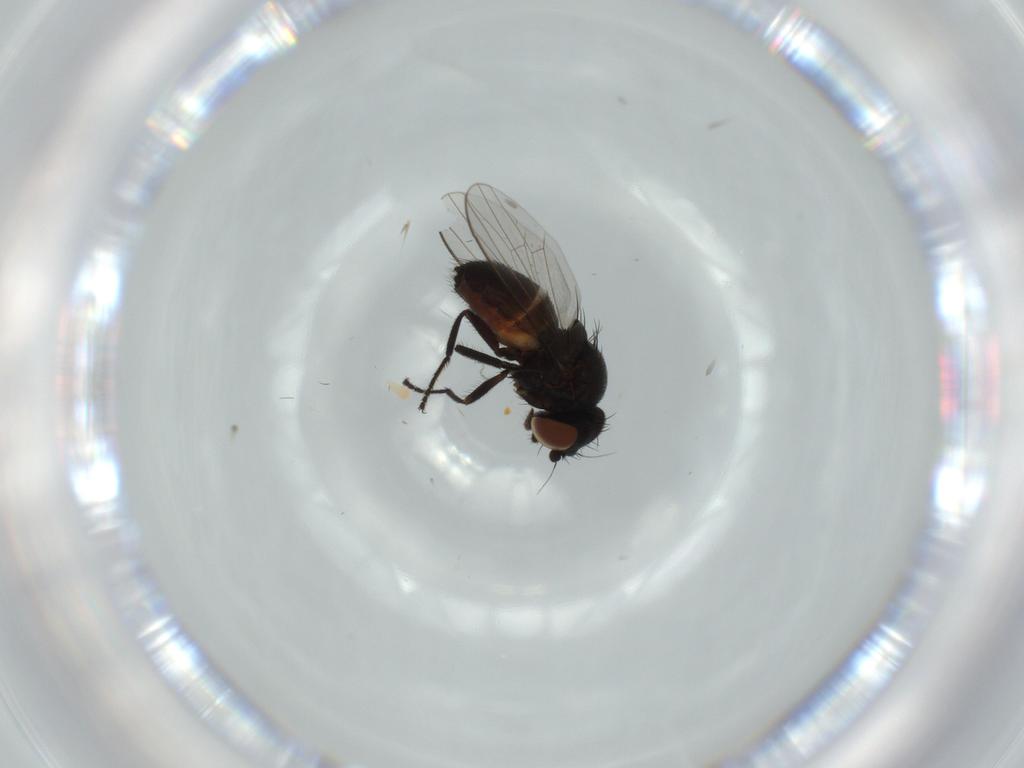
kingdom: Animalia
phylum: Arthropoda
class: Insecta
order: Diptera
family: Milichiidae
